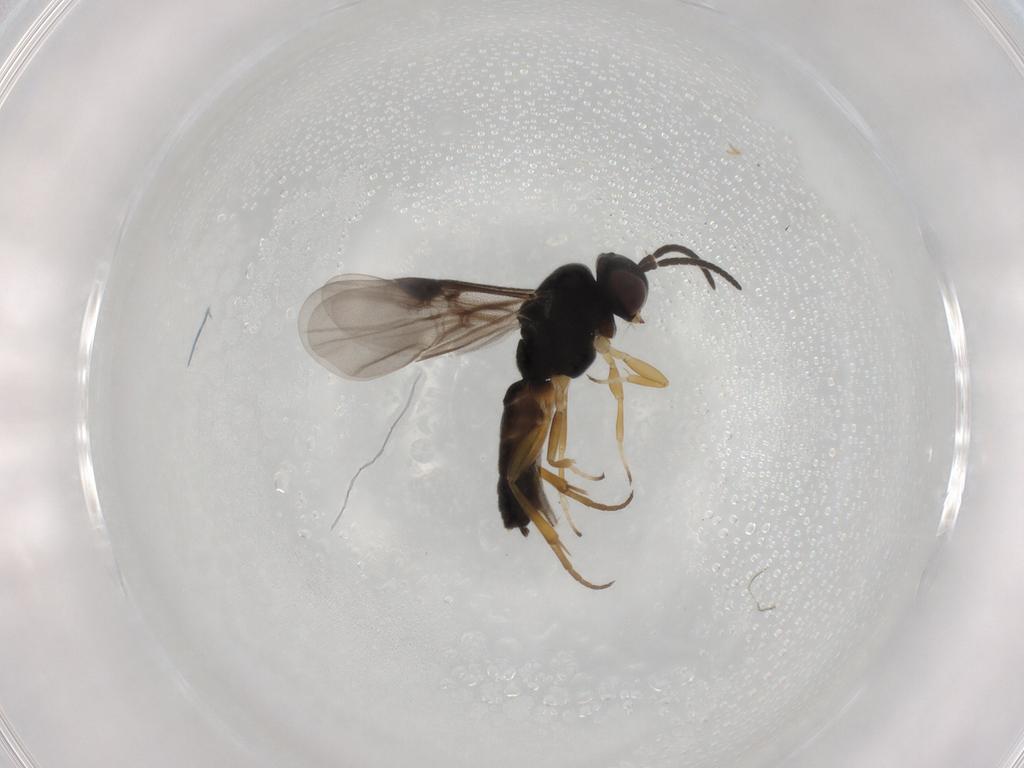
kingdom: Animalia
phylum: Arthropoda
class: Insecta
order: Hymenoptera
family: Braconidae
